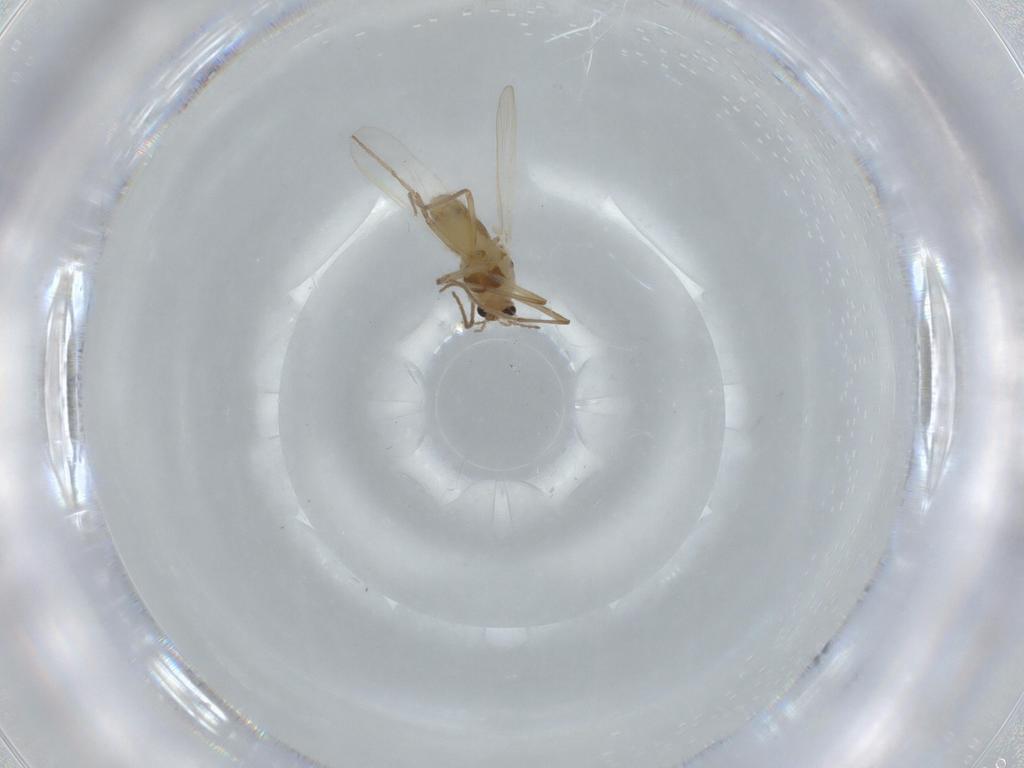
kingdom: Animalia
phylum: Arthropoda
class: Insecta
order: Diptera
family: Chironomidae
